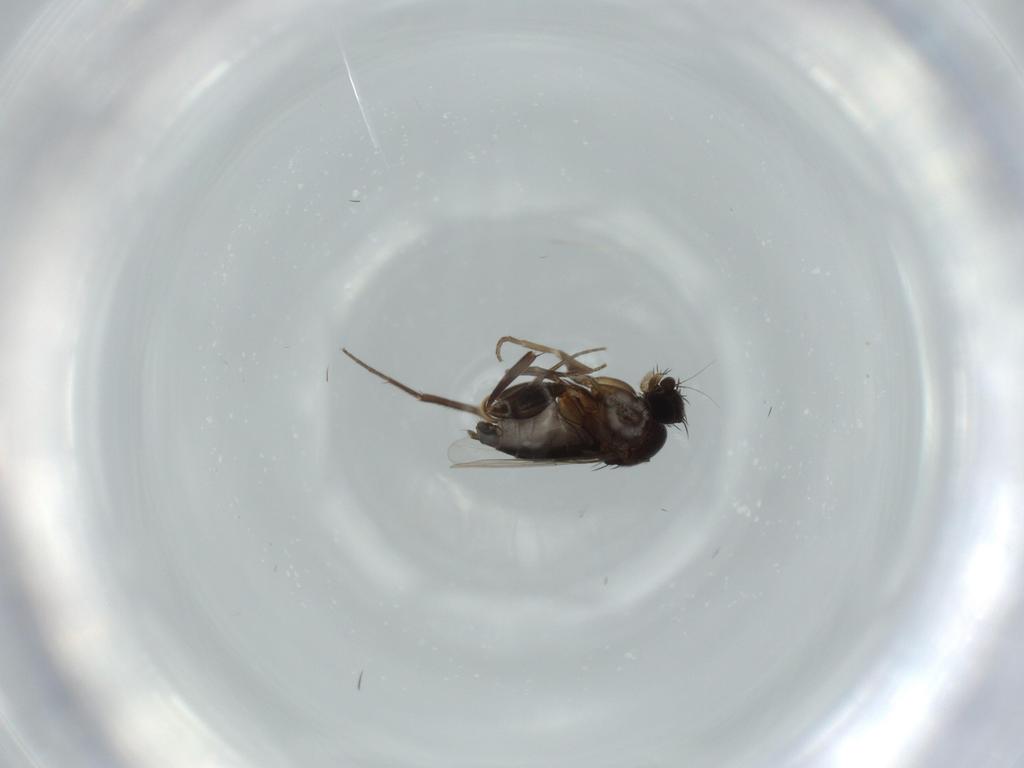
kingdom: Animalia
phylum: Arthropoda
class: Insecta
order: Diptera
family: Phoridae
